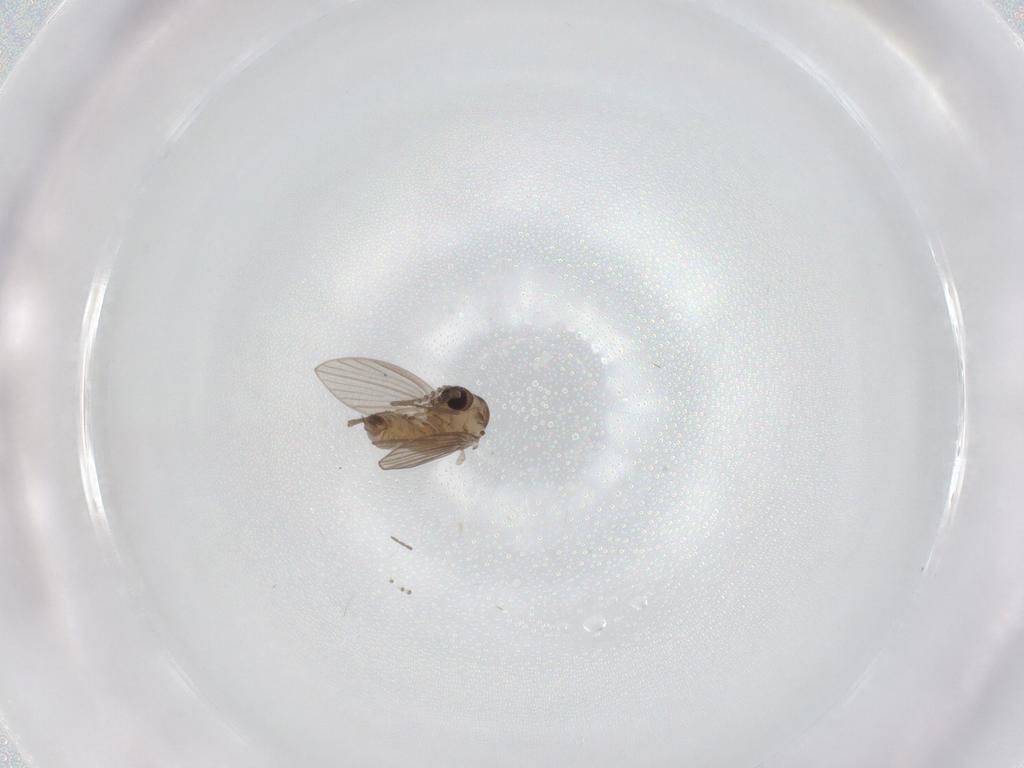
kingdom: Animalia
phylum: Arthropoda
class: Insecta
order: Diptera
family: Psychodidae
